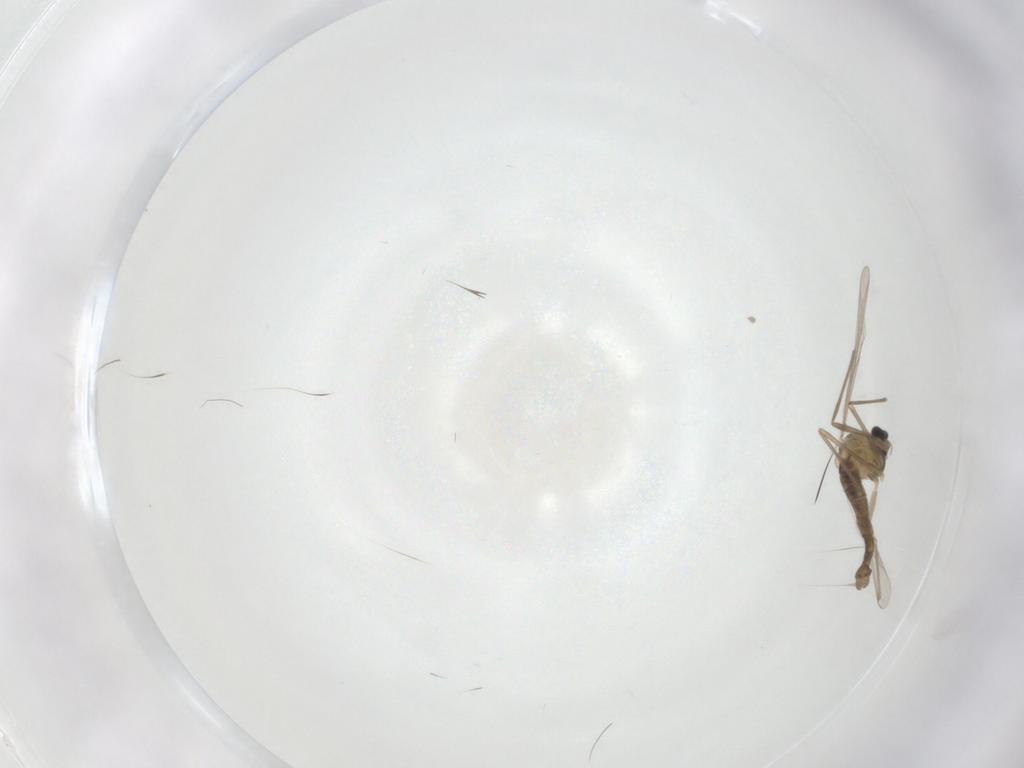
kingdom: Animalia
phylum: Arthropoda
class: Insecta
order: Diptera
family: Chironomidae
